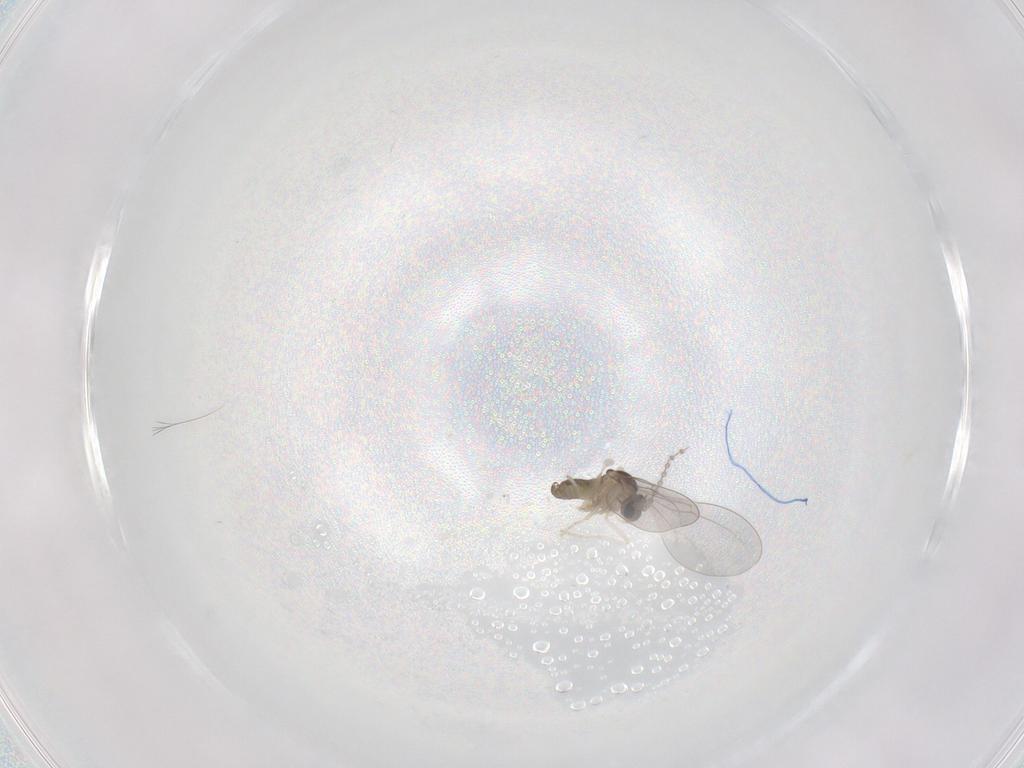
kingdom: Animalia
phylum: Arthropoda
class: Insecta
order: Diptera
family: Cecidomyiidae
